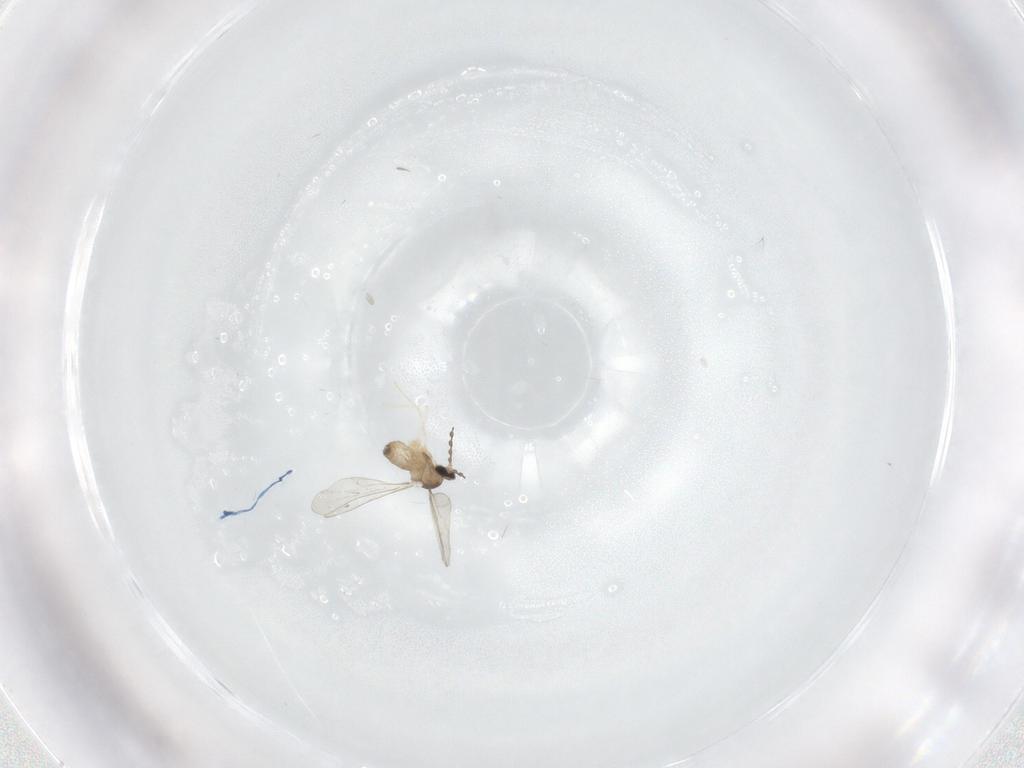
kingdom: Animalia
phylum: Arthropoda
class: Insecta
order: Diptera
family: Cecidomyiidae
